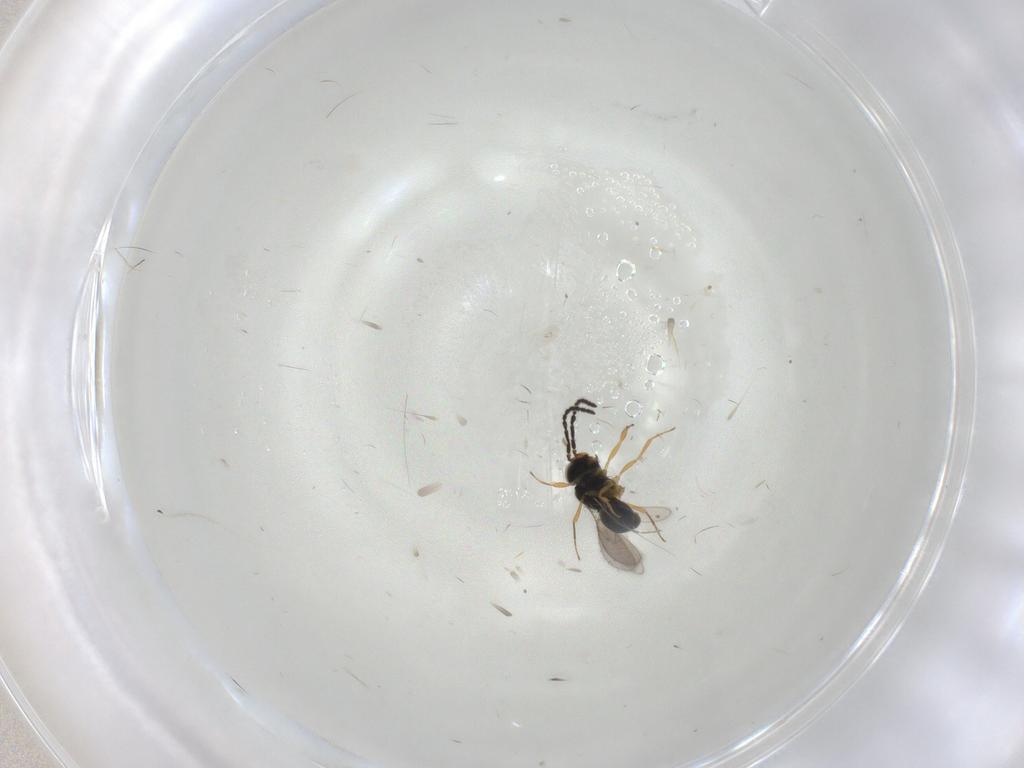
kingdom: Animalia
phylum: Arthropoda
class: Insecta
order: Hymenoptera
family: Scelionidae
